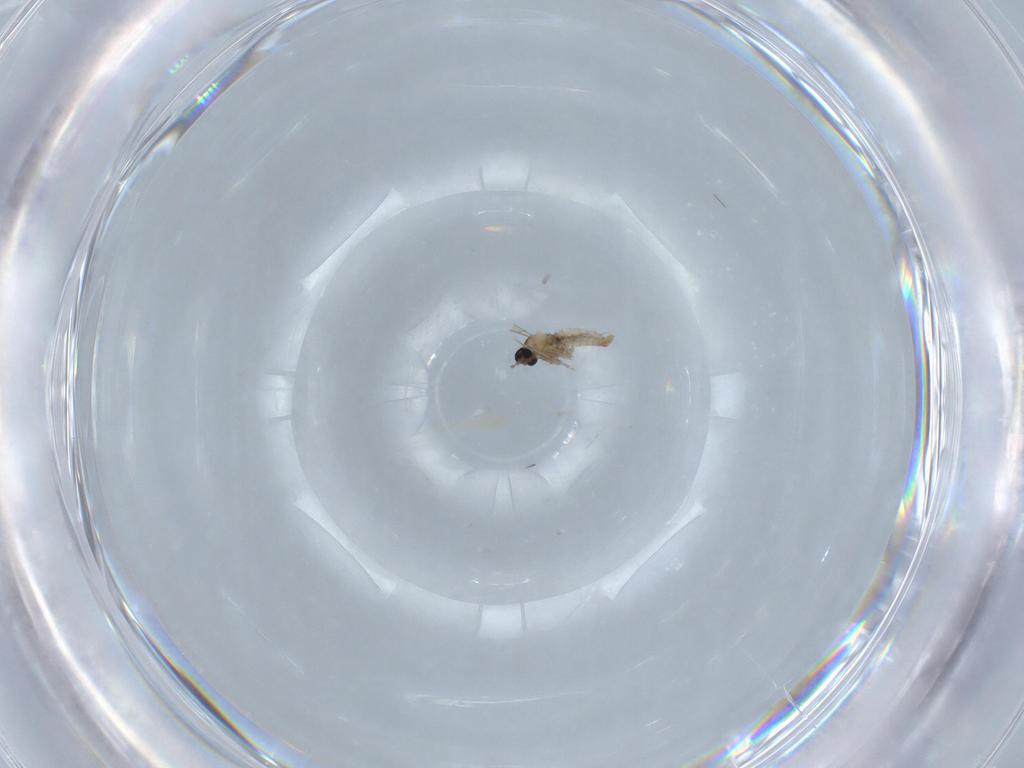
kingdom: Animalia
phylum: Arthropoda
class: Insecta
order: Diptera
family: Cecidomyiidae
